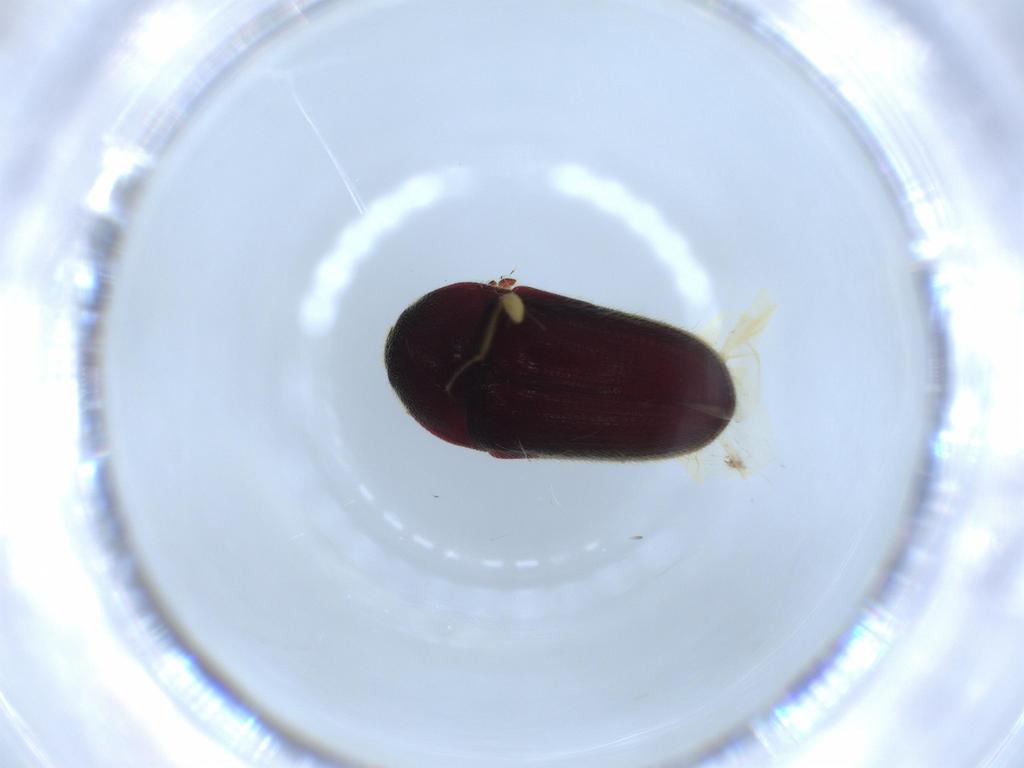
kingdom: Animalia
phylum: Arthropoda
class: Insecta
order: Coleoptera
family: Throscidae
